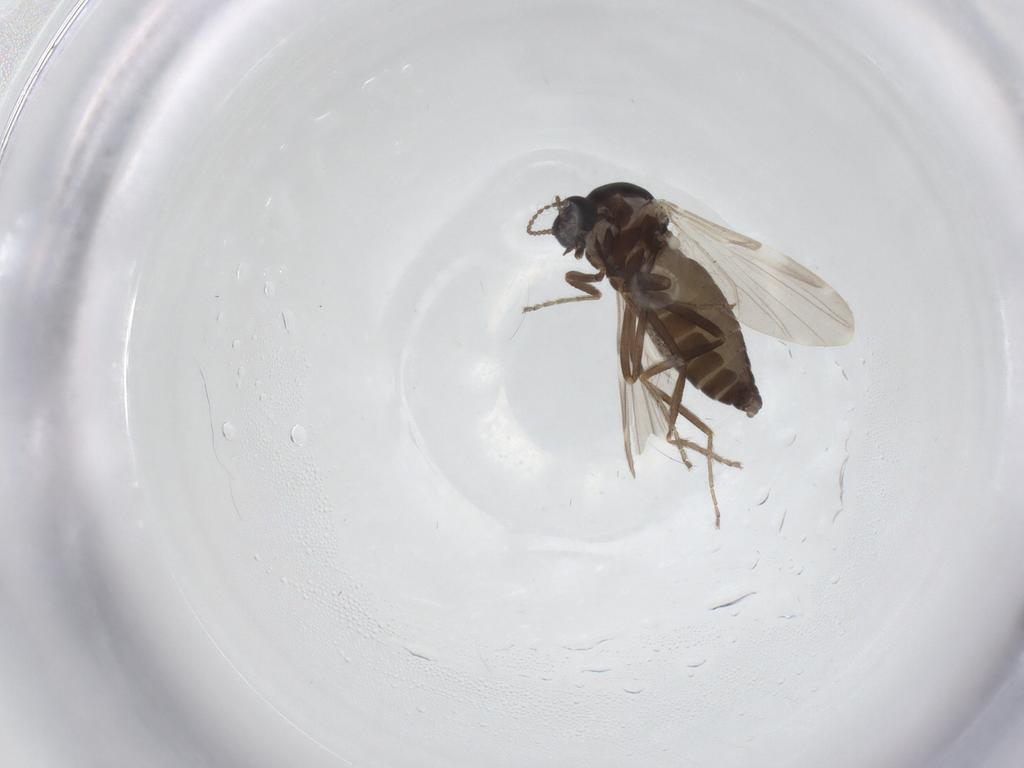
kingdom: Animalia
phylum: Arthropoda
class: Insecta
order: Diptera
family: Ceratopogonidae
